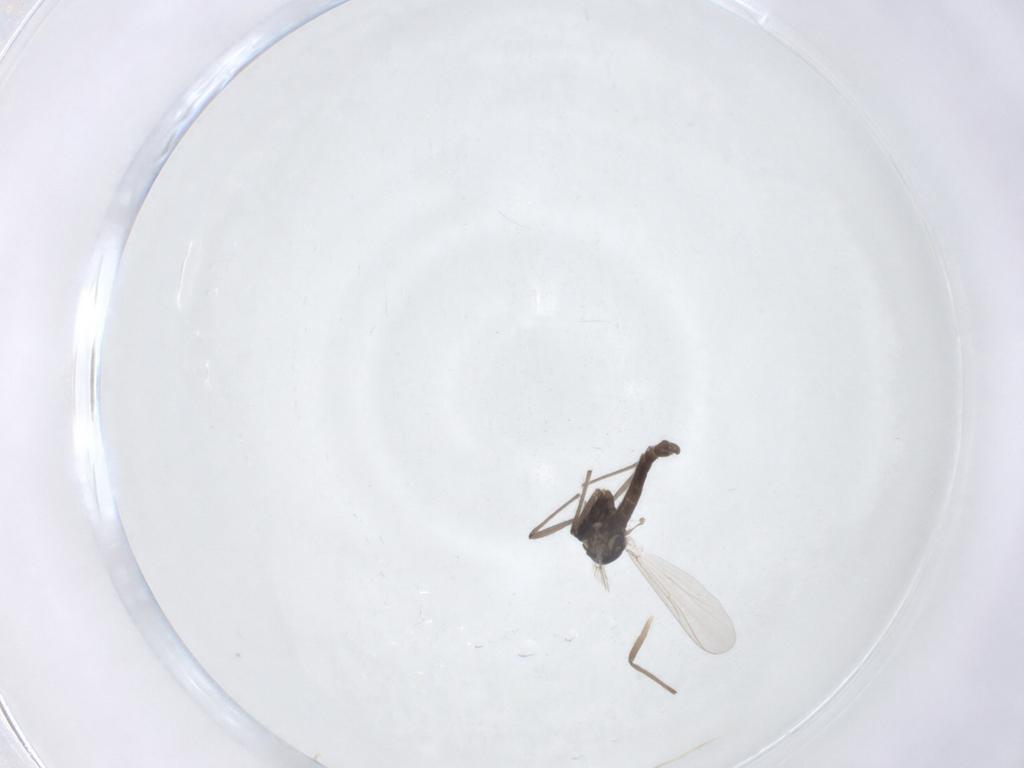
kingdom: Animalia
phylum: Arthropoda
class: Insecta
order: Diptera
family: Chironomidae
